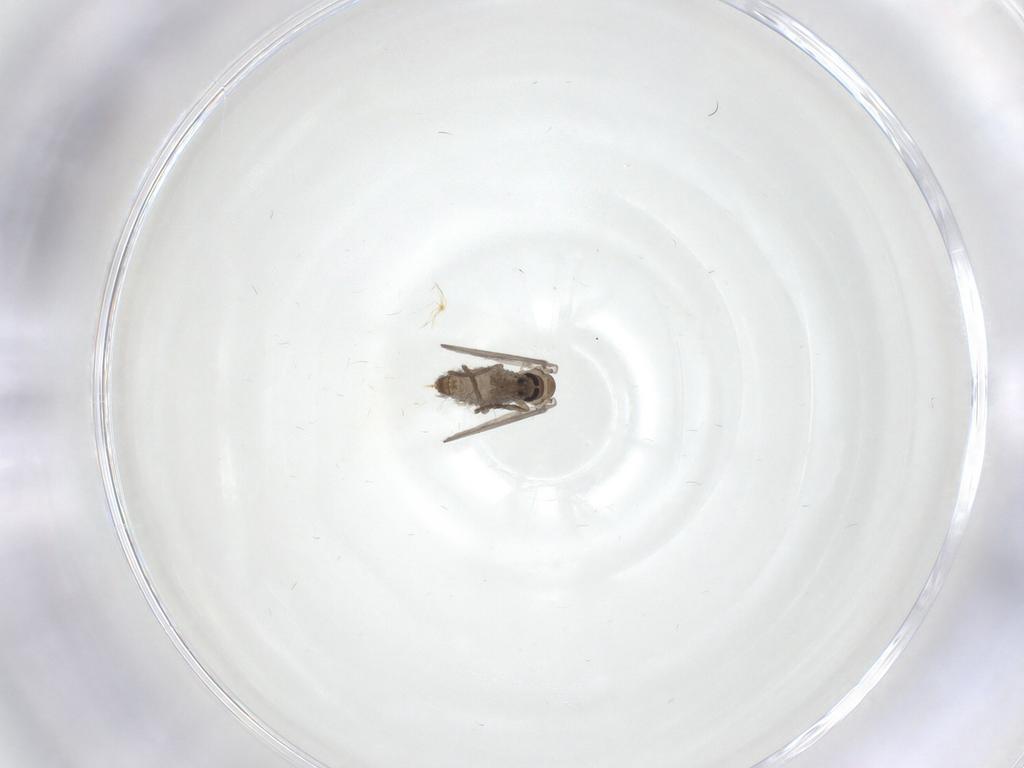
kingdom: Animalia
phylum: Arthropoda
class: Insecta
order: Diptera
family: Psychodidae
